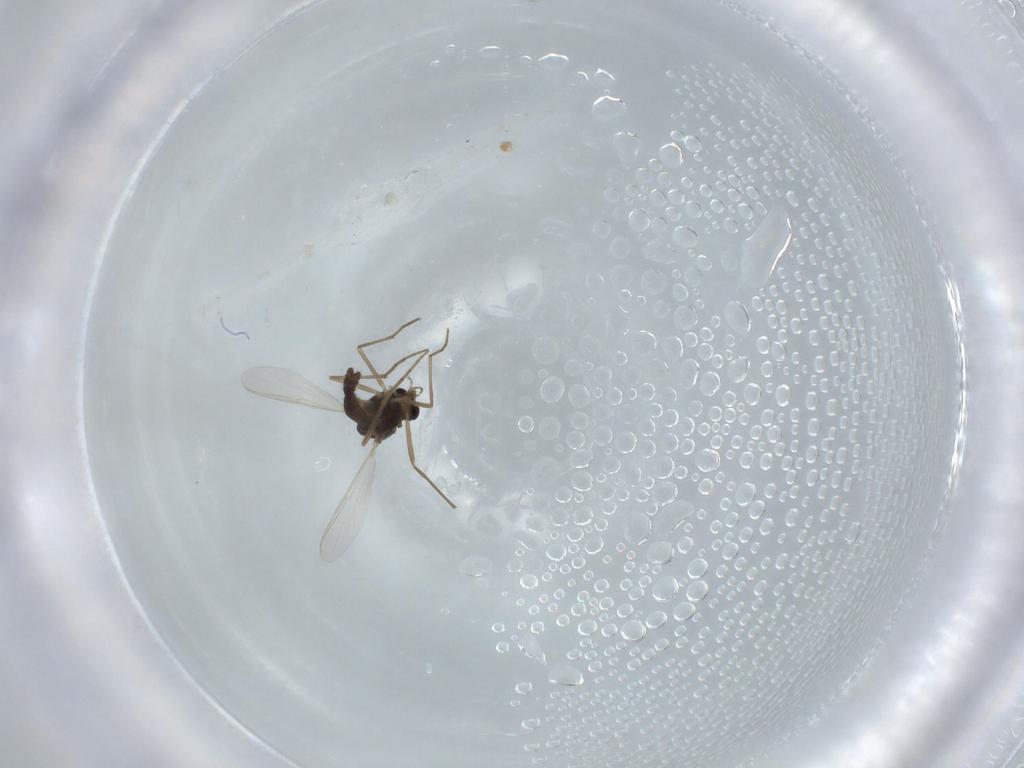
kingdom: Animalia
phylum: Arthropoda
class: Insecta
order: Diptera
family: Chironomidae
